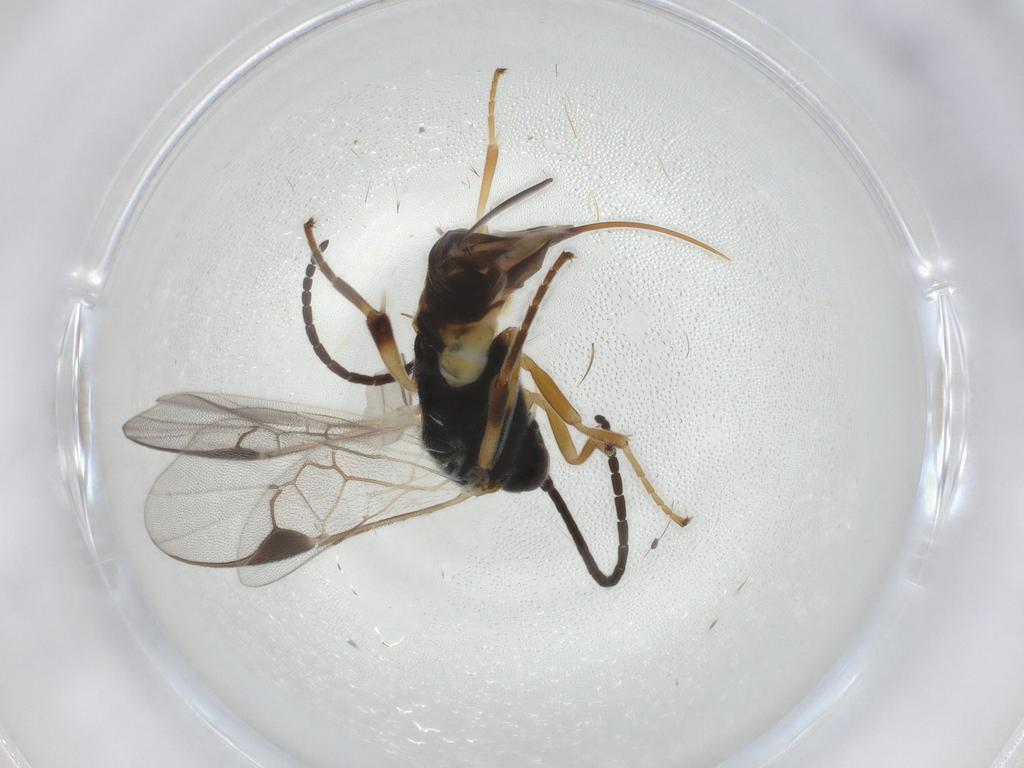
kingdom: Animalia
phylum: Arthropoda
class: Insecta
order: Hymenoptera
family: Braconidae
